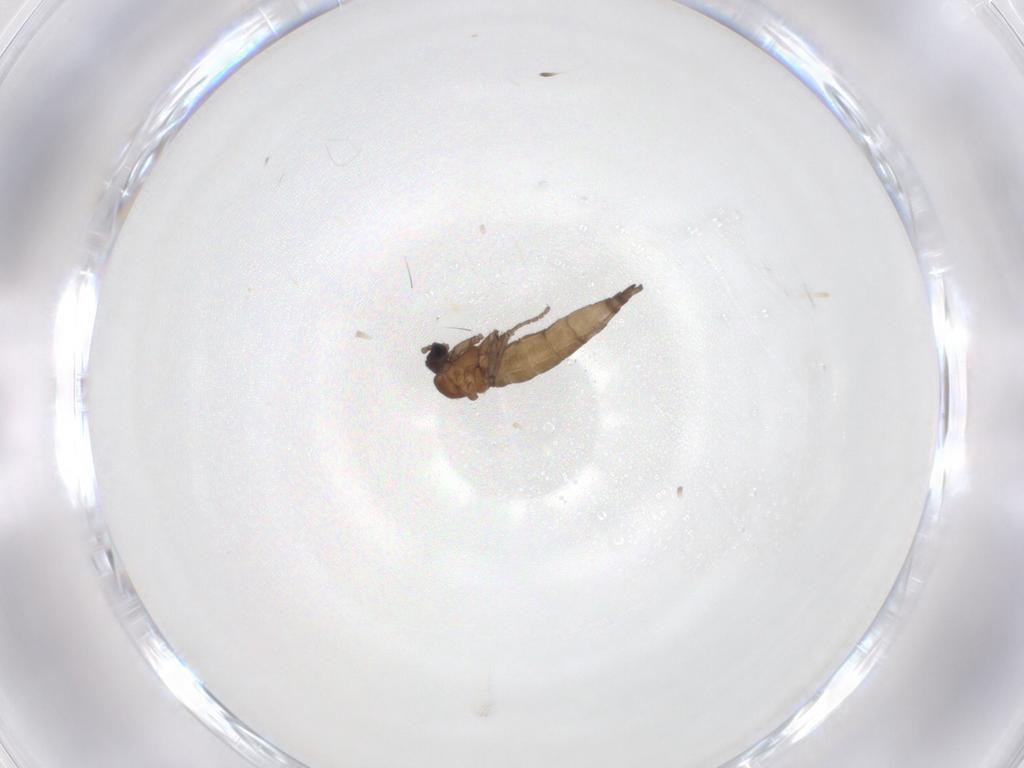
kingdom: Animalia
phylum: Arthropoda
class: Insecta
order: Diptera
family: Sciaridae
